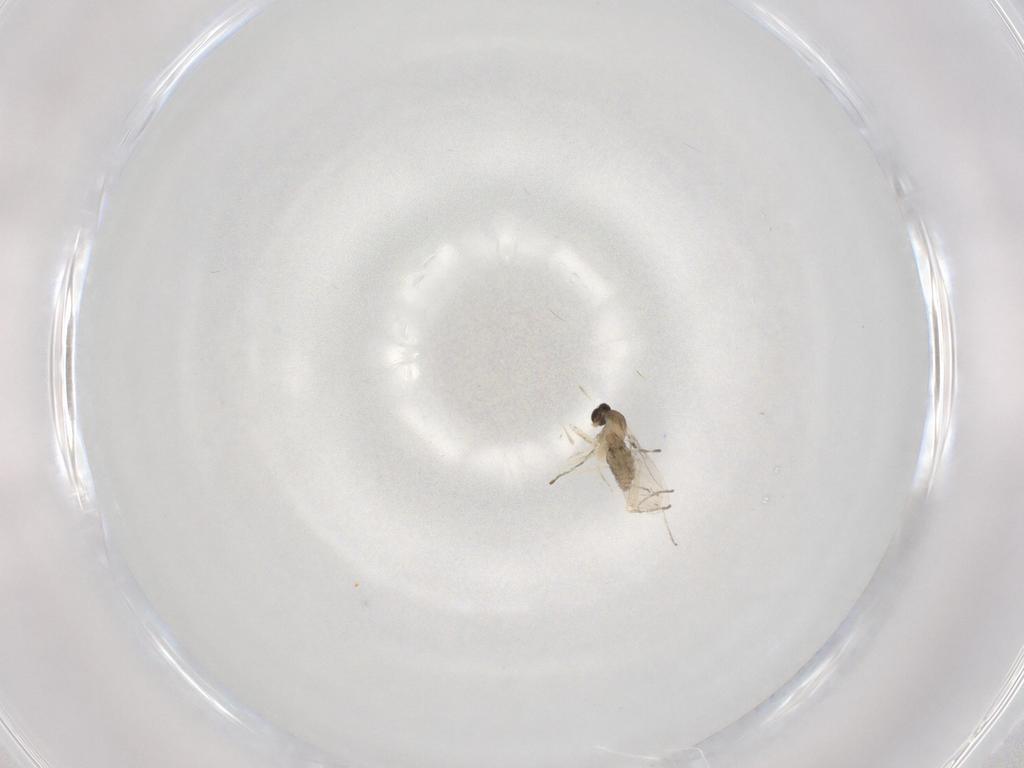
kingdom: Animalia
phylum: Arthropoda
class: Insecta
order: Diptera
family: Cecidomyiidae
